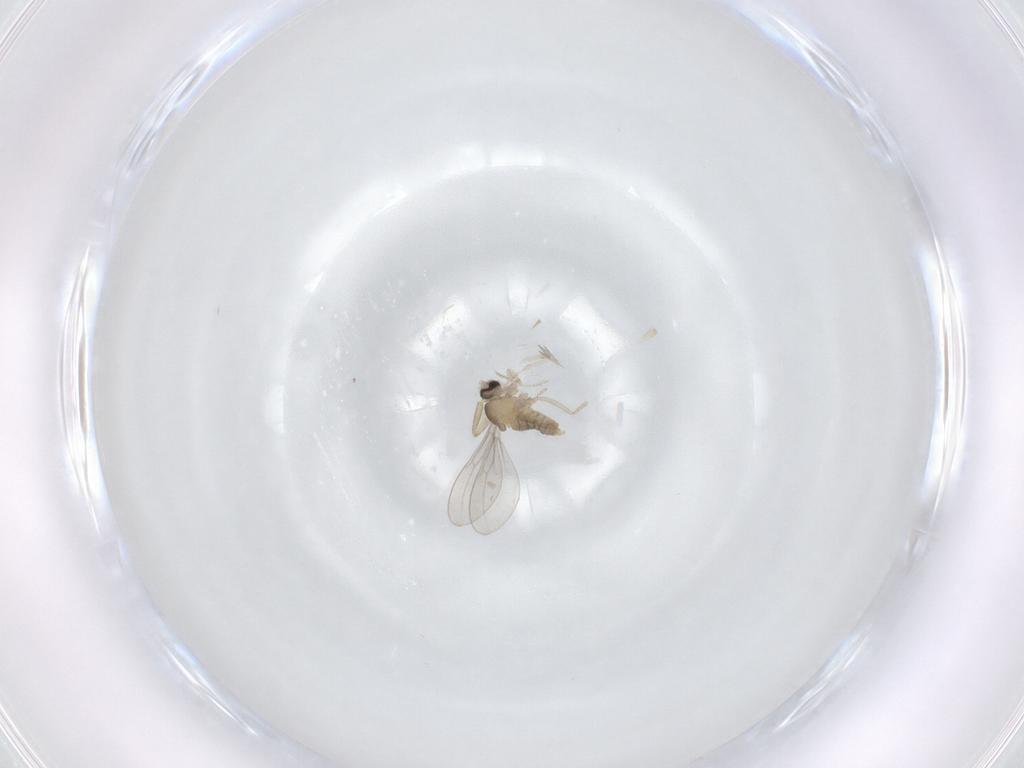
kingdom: Animalia
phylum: Arthropoda
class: Insecta
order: Diptera
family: Cecidomyiidae
